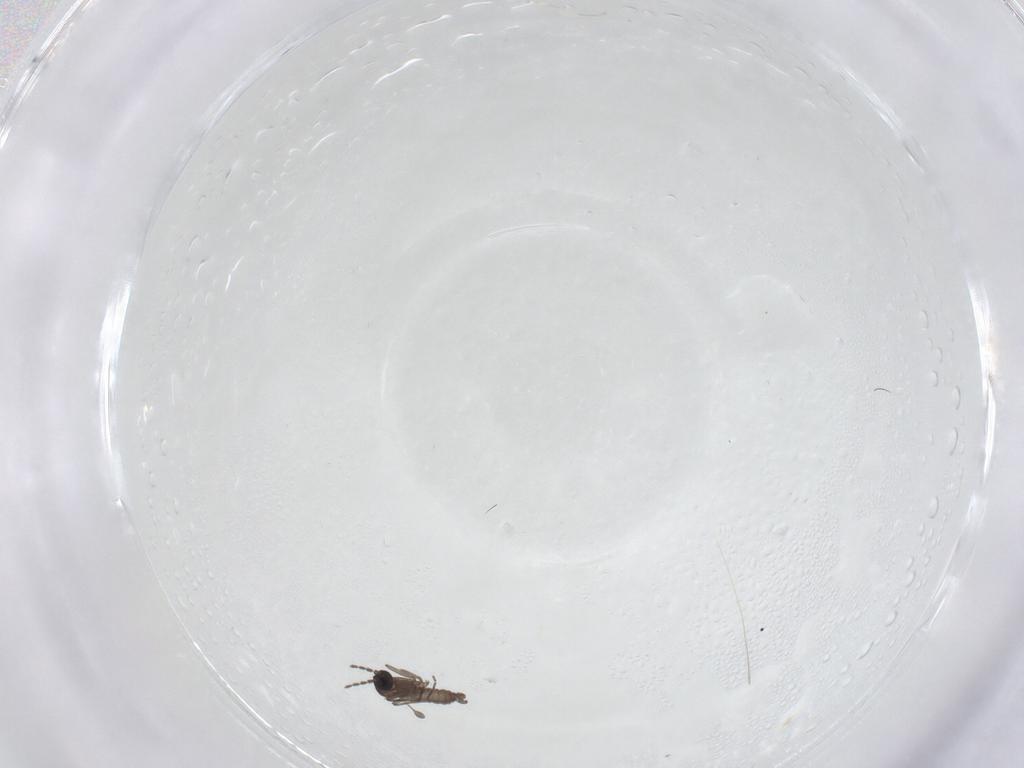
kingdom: Animalia
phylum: Arthropoda
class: Insecta
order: Diptera
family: Sciaridae
